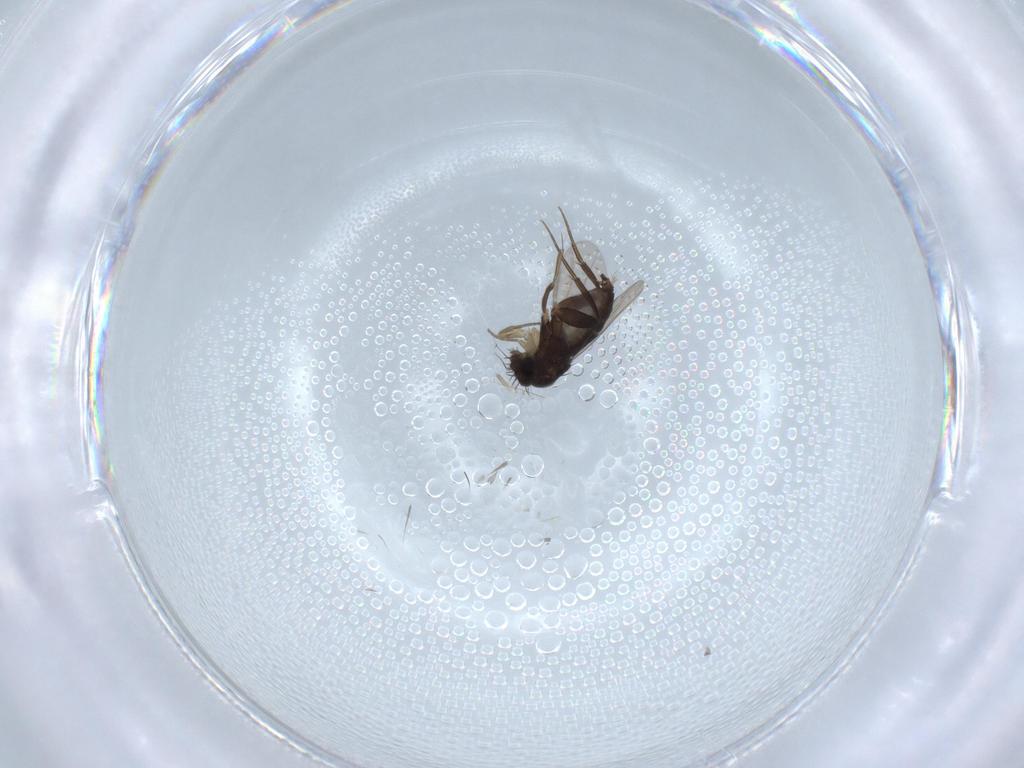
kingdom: Animalia
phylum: Arthropoda
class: Insecta
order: Diptera
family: Phoridae
